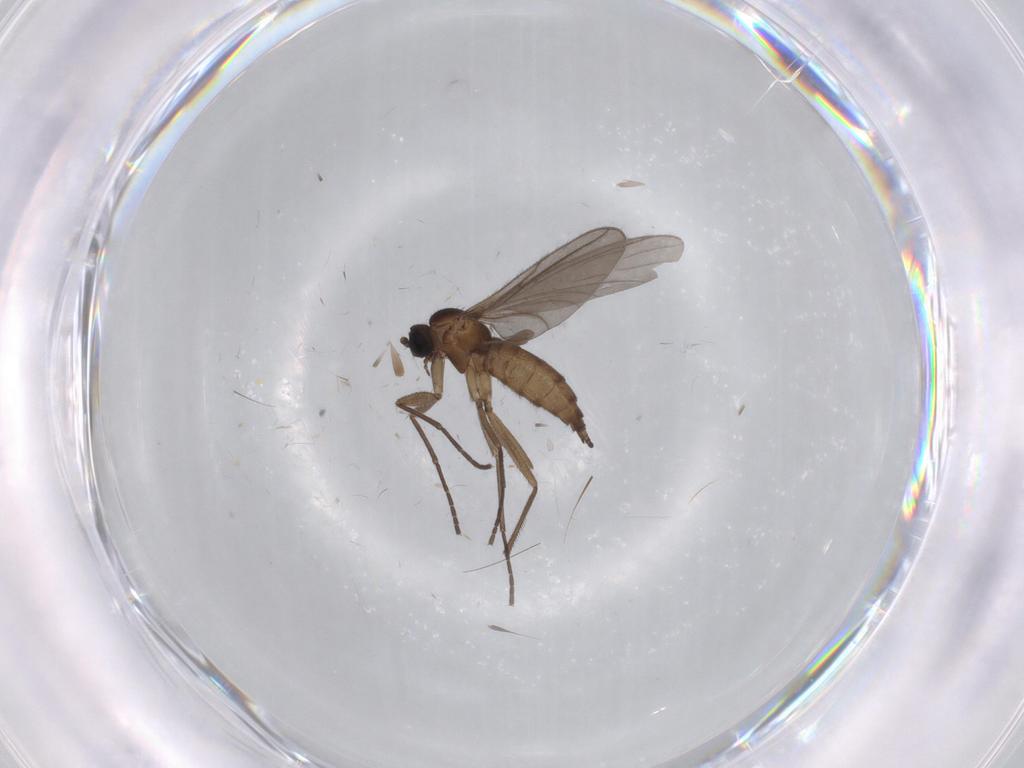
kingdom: Animalia
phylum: Arthropoda
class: Insecta
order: Diptera
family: Sciaridae
